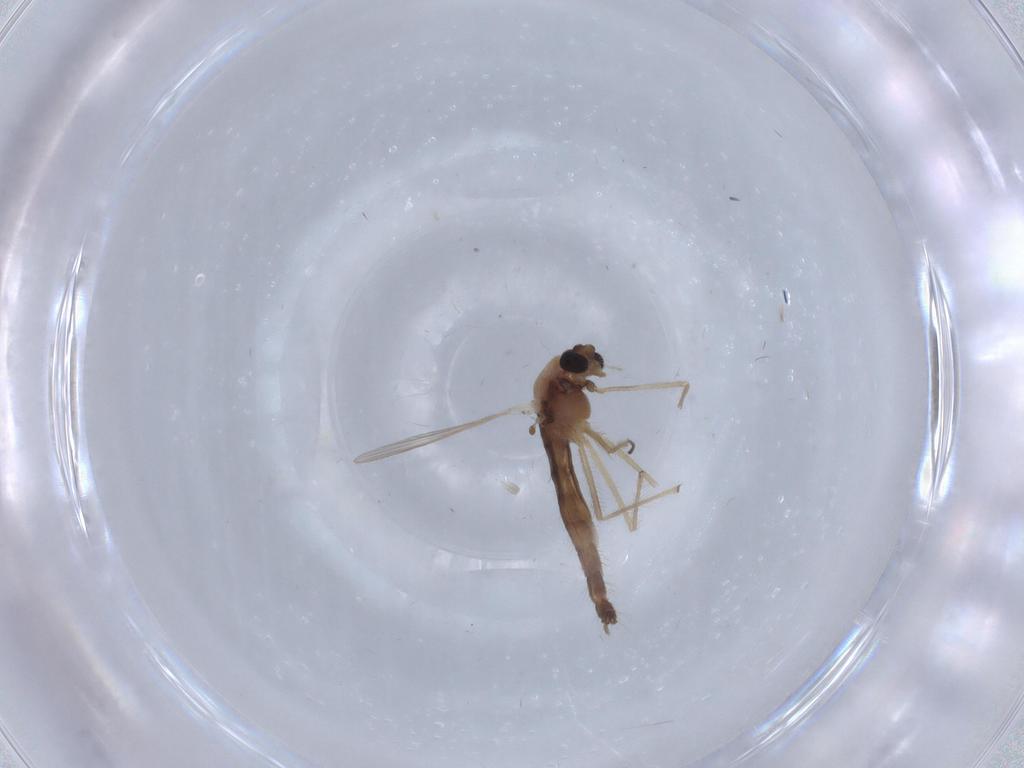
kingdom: Animalia
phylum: Arthropoda
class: Insecta
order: Diptera
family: Chironomidae
